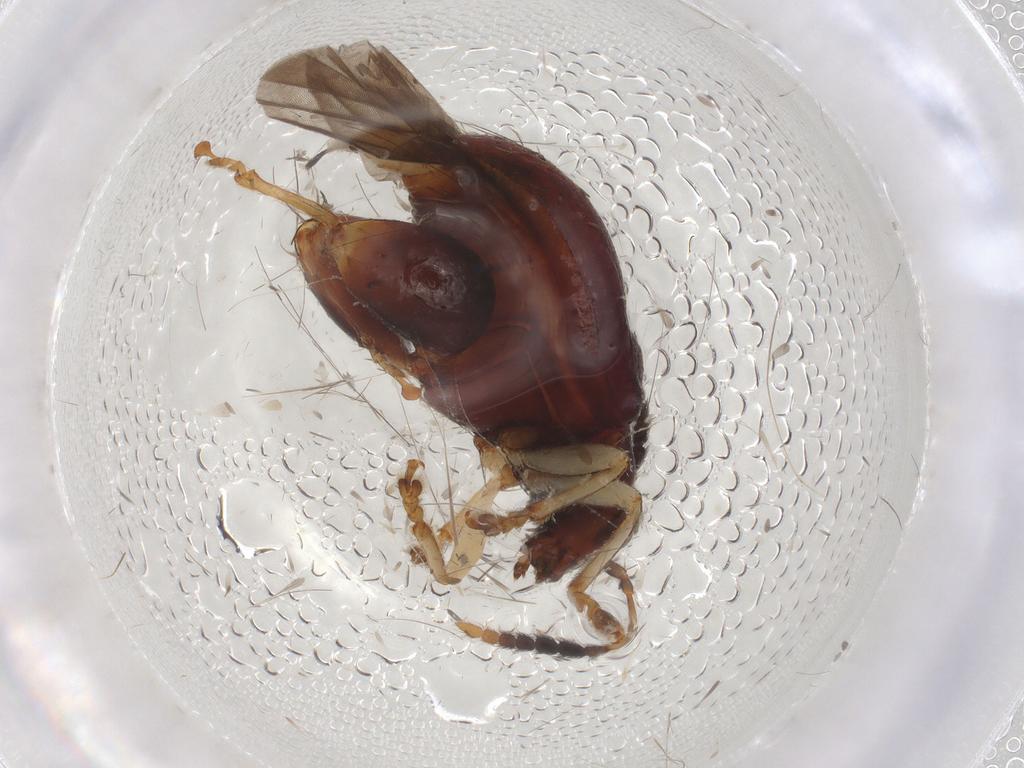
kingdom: Animalia
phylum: Arthropoda
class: Insecta
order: Coleoptera
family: Chrysomelidae
